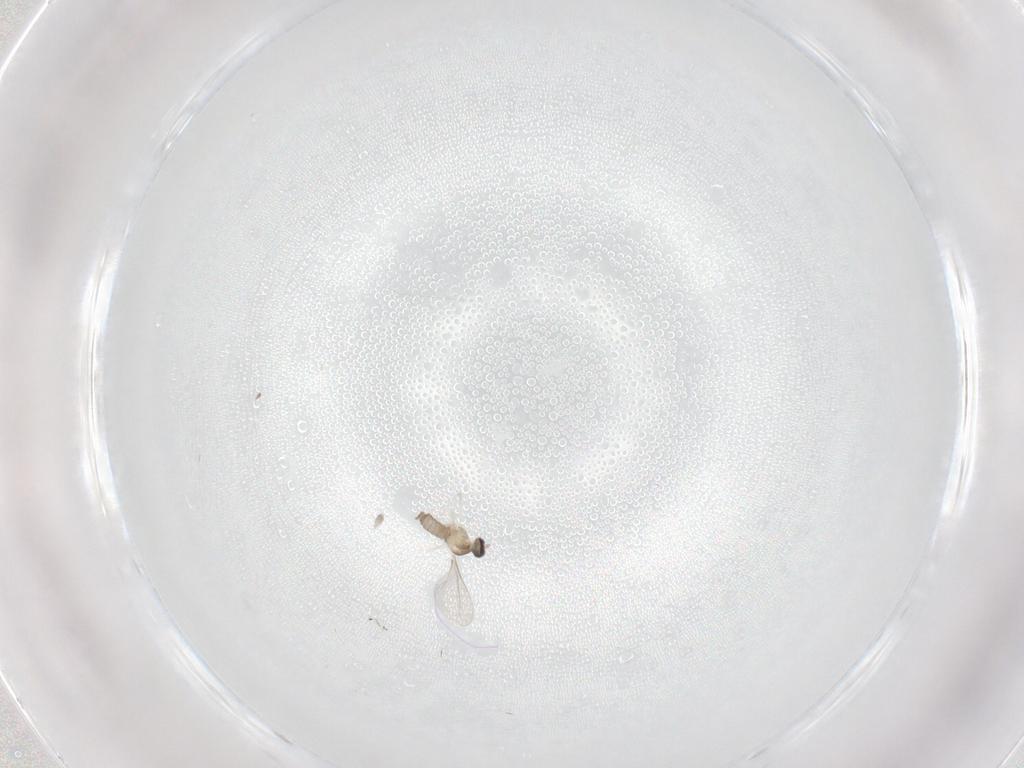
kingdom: Animalia
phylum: Arthropoda
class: Insecta
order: Diptera
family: Cecidomyiidae
